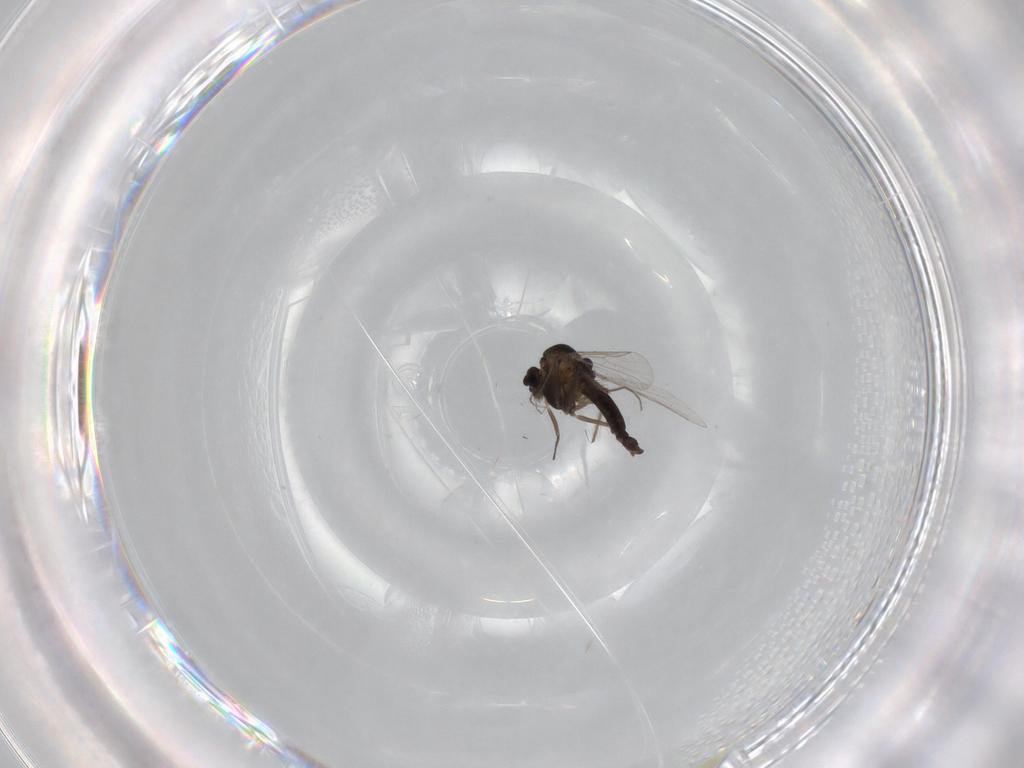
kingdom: Animalia
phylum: Arthropoda
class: Insecta
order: Diptera
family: Chironomidae
